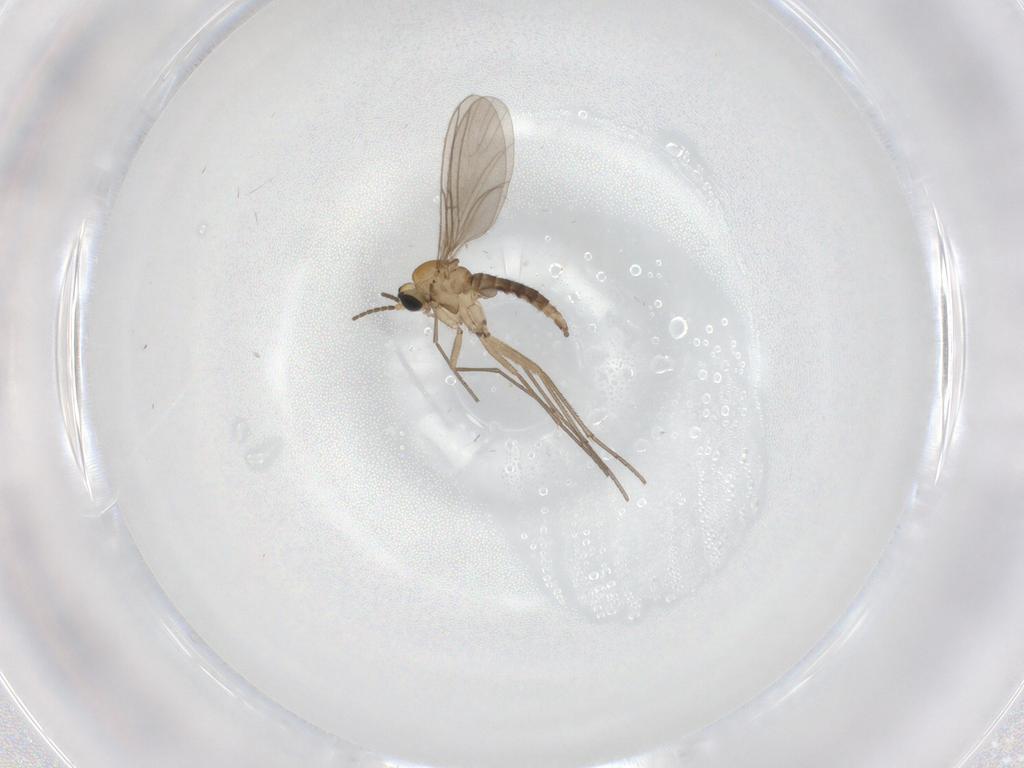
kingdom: Animalia
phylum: Arthropoda
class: Insecta
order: Diptera
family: Sciaridae
